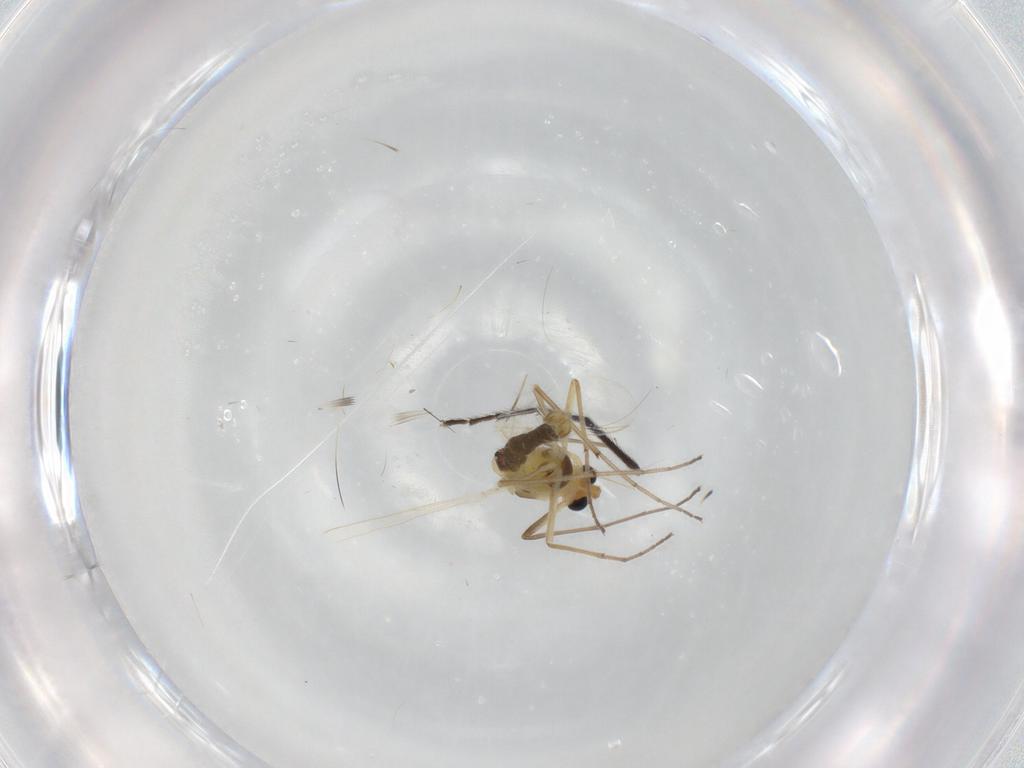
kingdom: Animalia
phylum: Arthropoda
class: Insecta
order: Diptera
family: Chironomidae
